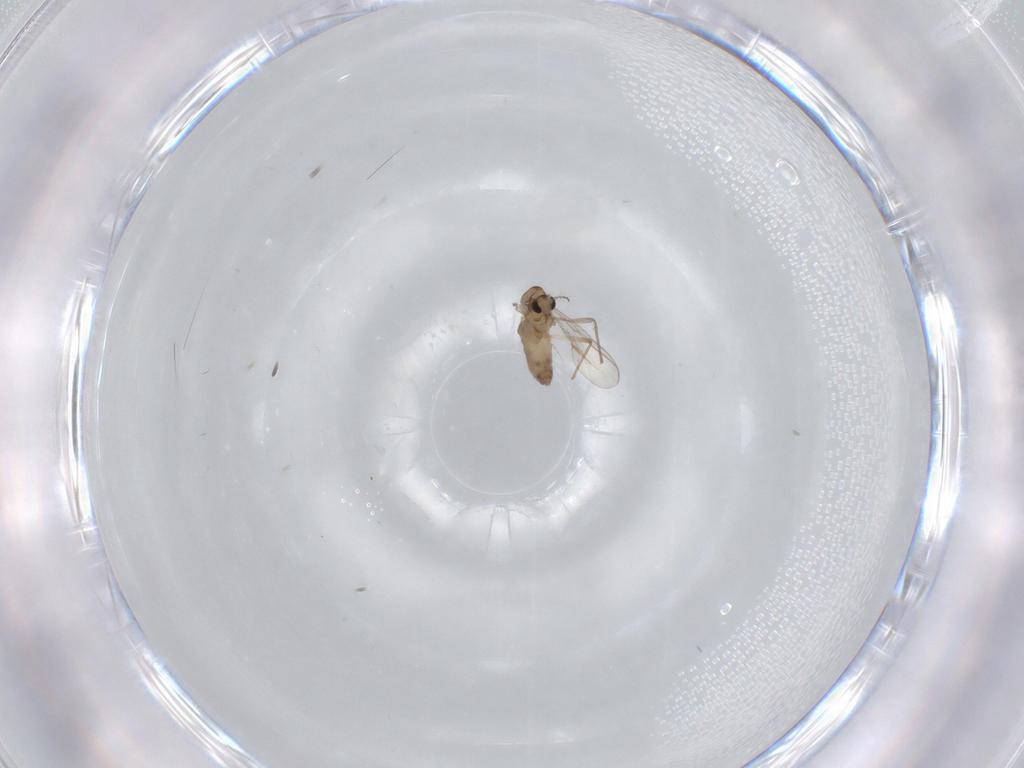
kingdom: Animalia
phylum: Arthropoda
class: Insecta
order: Diptera
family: Chironomidae
